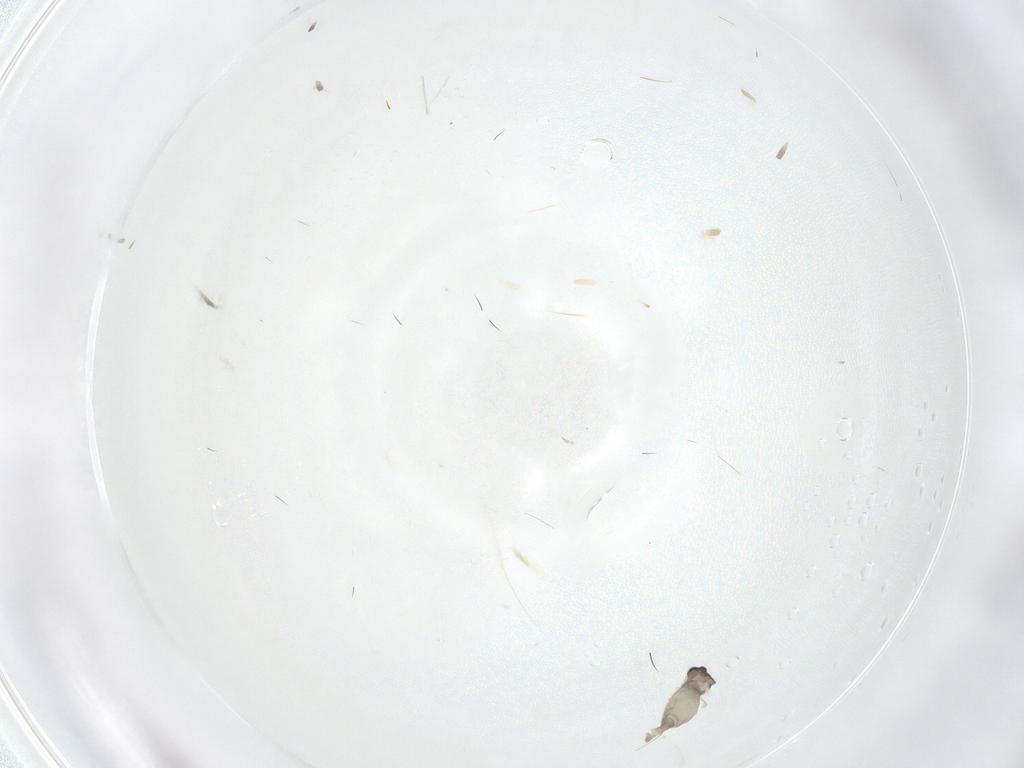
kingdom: Animalia
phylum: Arthropoda
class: Insecta
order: Diptera
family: Cecidomyiidae
